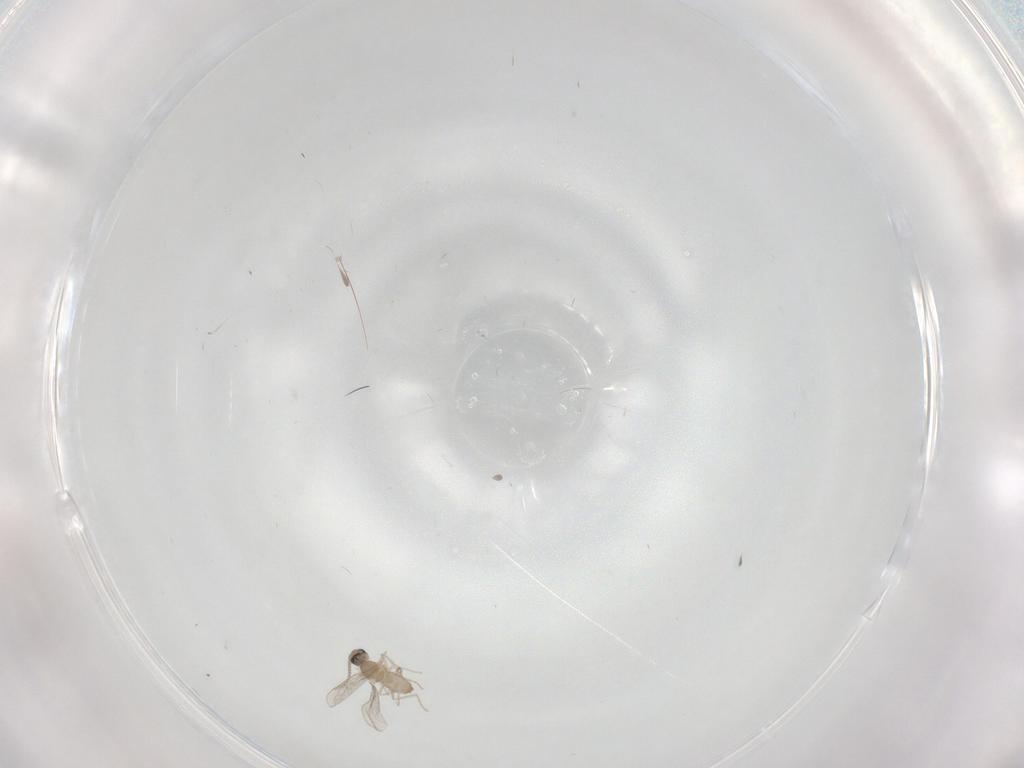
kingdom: Animalia
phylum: Arthropoda
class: Insecta
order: Diptera
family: Cecidomyiidae
